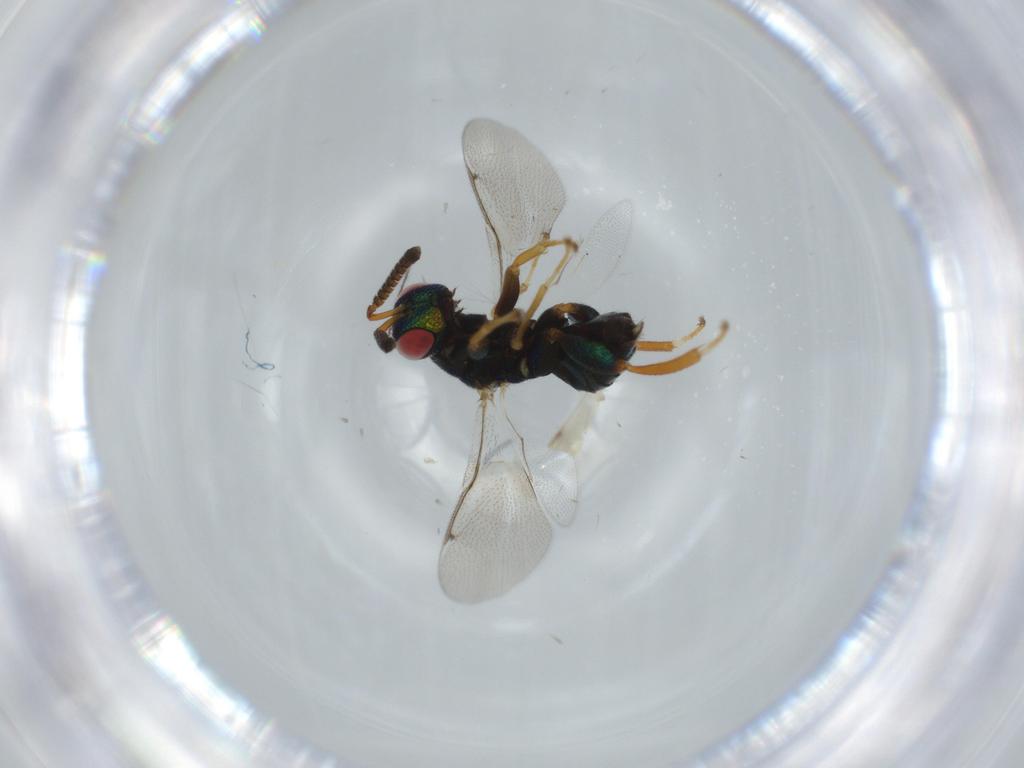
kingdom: Animalia
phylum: Arthropoda
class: Insecta
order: Hymenoptera
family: Torymidae
